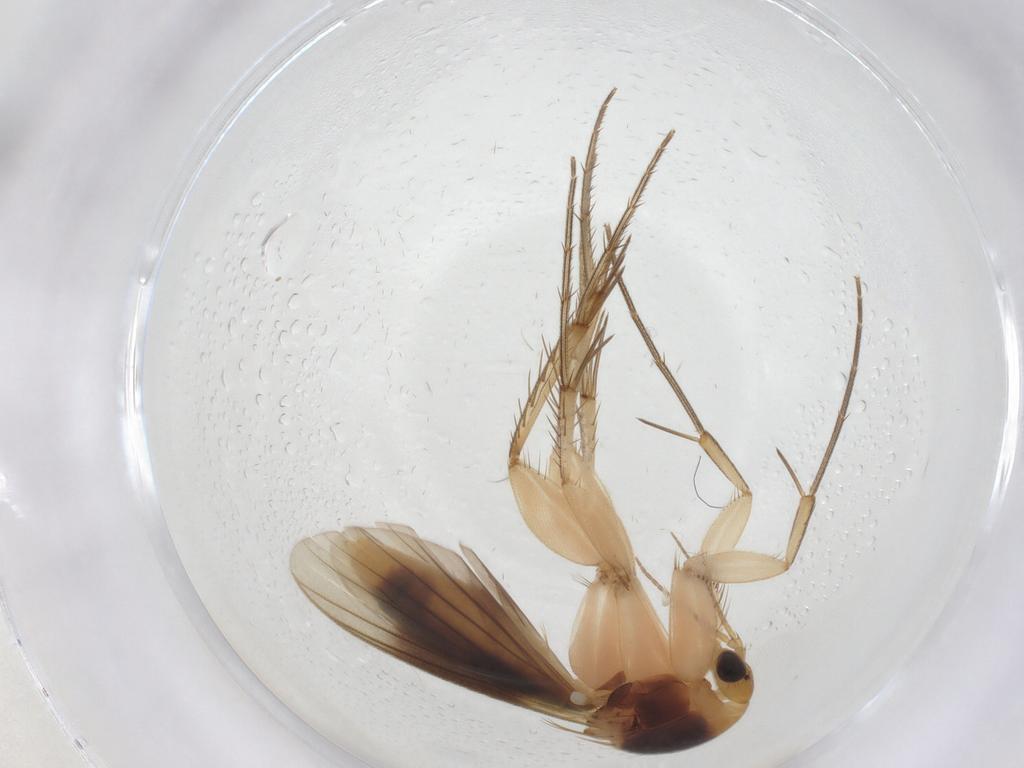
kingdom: Animalia
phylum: Arthropoda
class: Insecta
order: Diptera
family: Mycetophilidae
